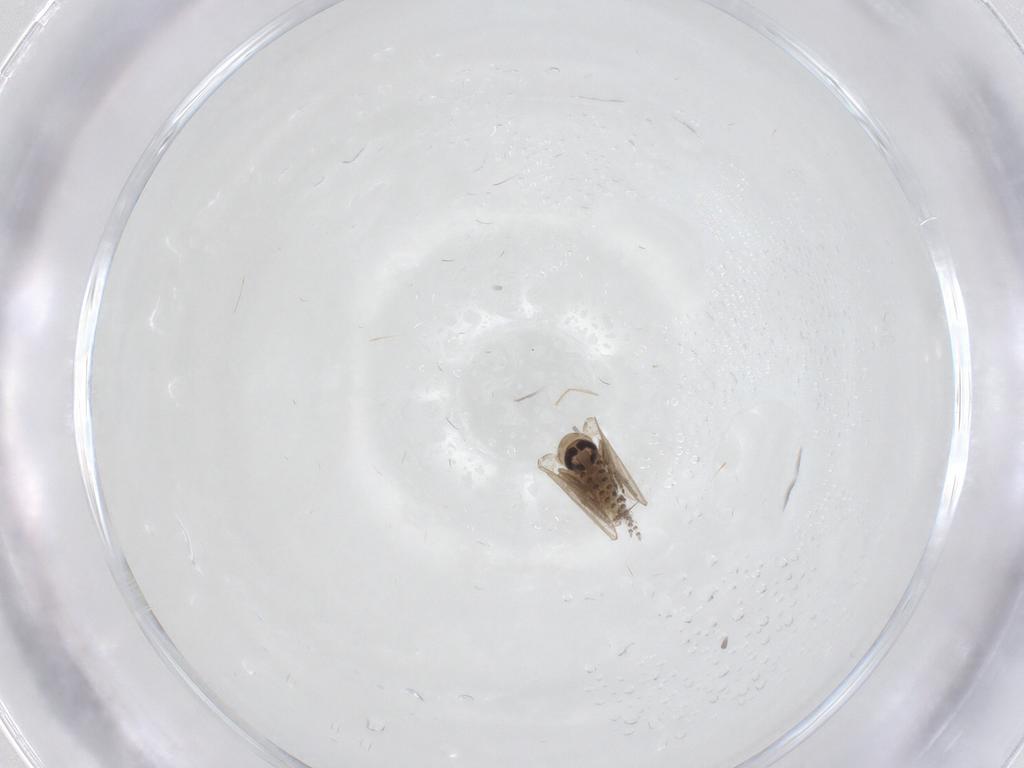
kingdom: Animalia
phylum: Arthropoda
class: Insecta
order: Diptera
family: Psychodidae
